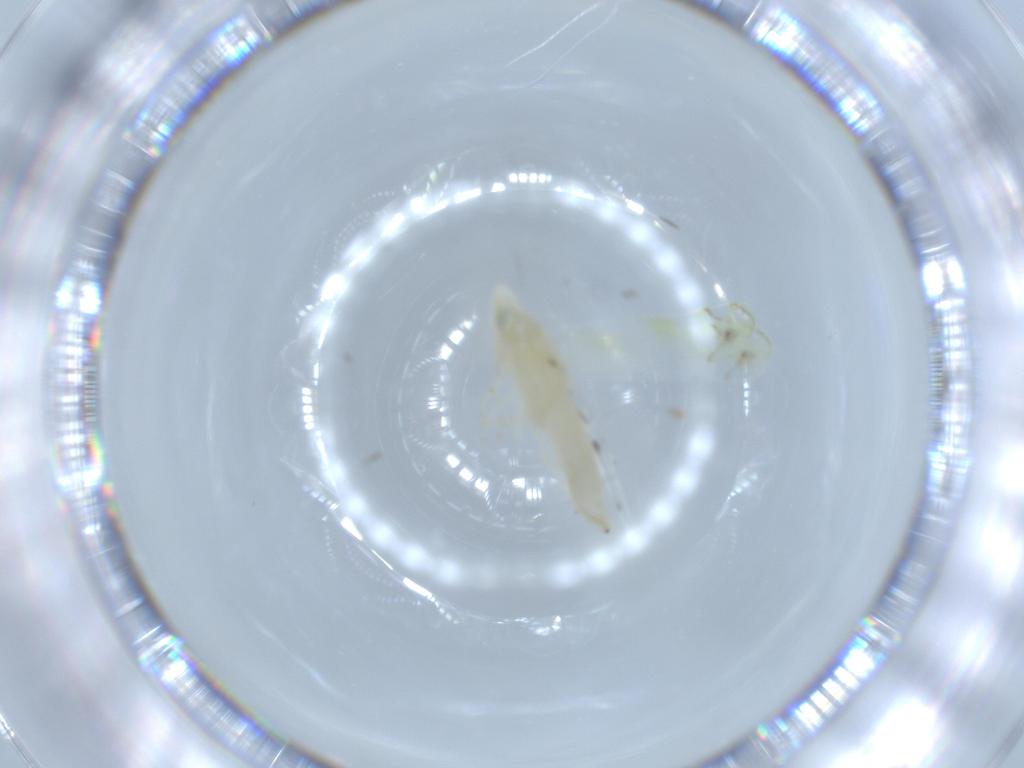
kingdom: Animalia
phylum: Arthropoda
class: Insecta
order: Hemiptera
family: Cicadellidae
